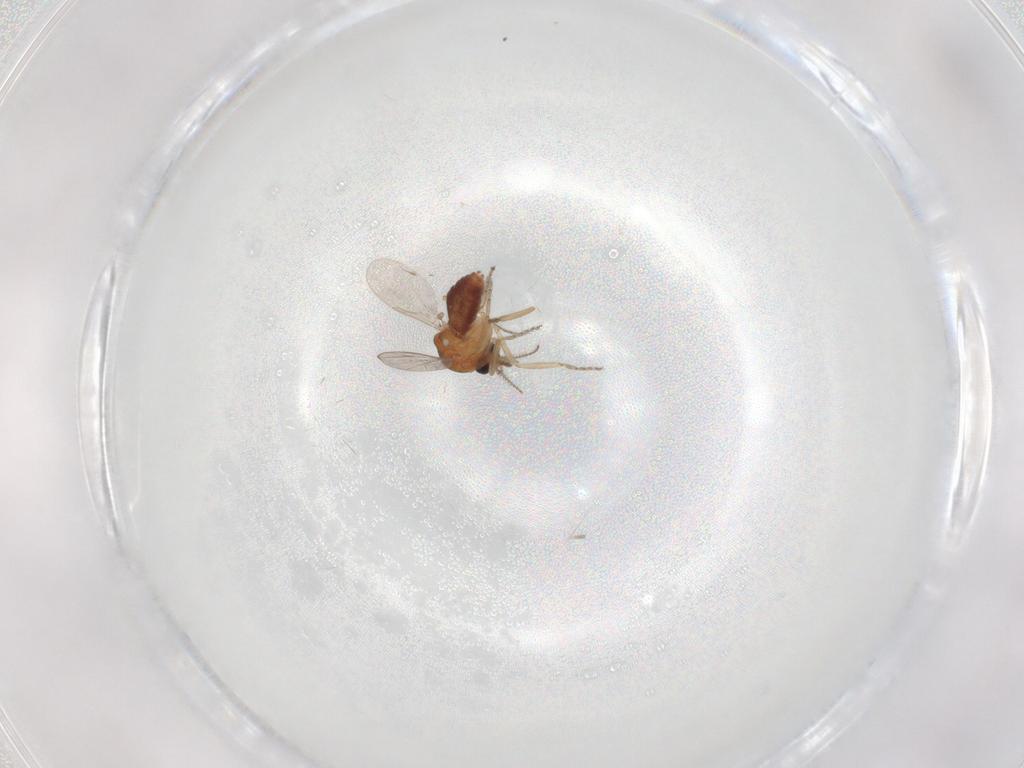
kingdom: Animalia
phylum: Arthropoda
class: Insecta
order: Diptera
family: Ceratopogonidae
